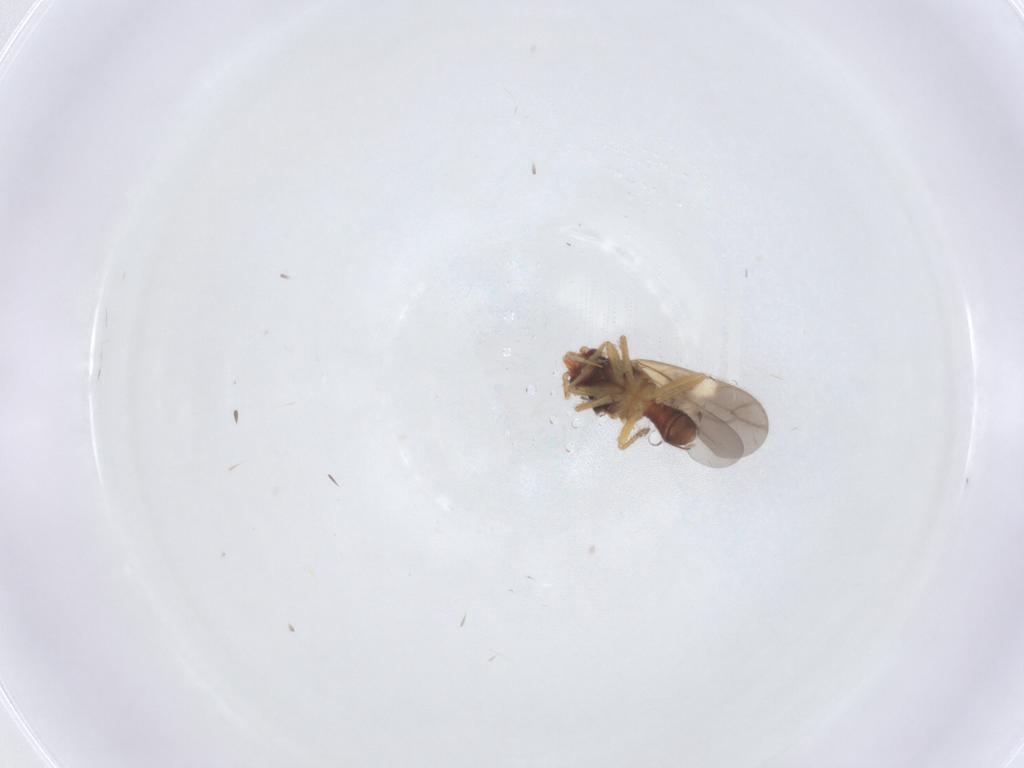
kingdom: Animalia
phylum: Arthropoda
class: Insecta
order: Hemiptera
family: Ceratocombidae
